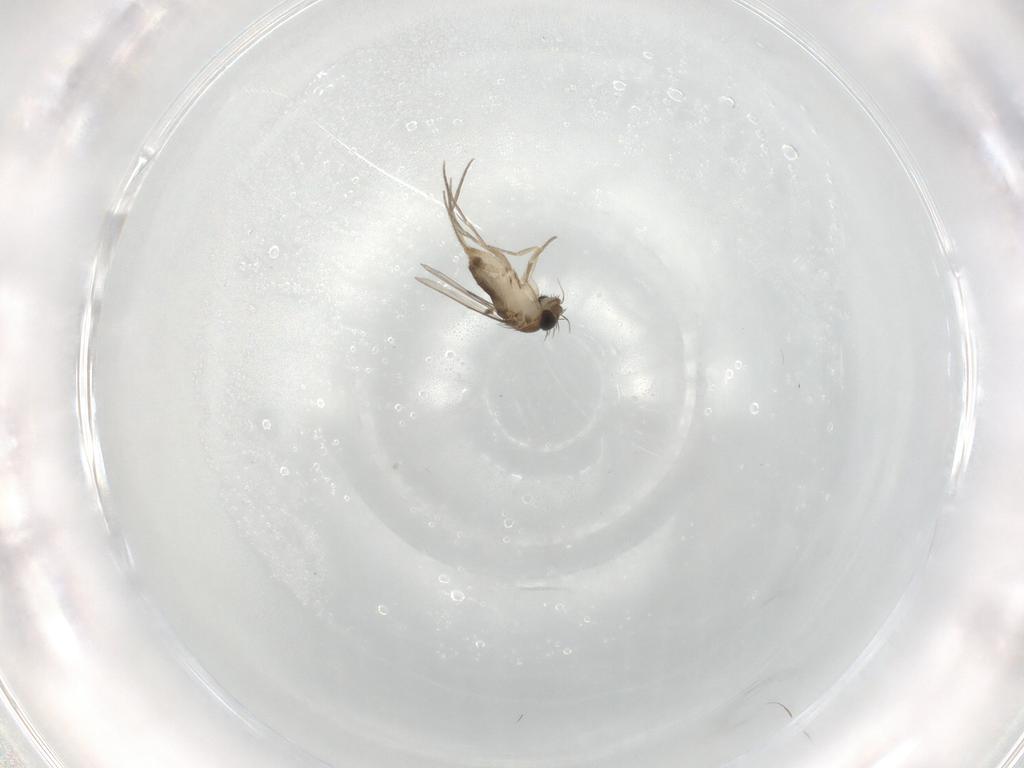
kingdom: Animalia
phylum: Arthropoda
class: Insecta
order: Diptera
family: Phoridae
